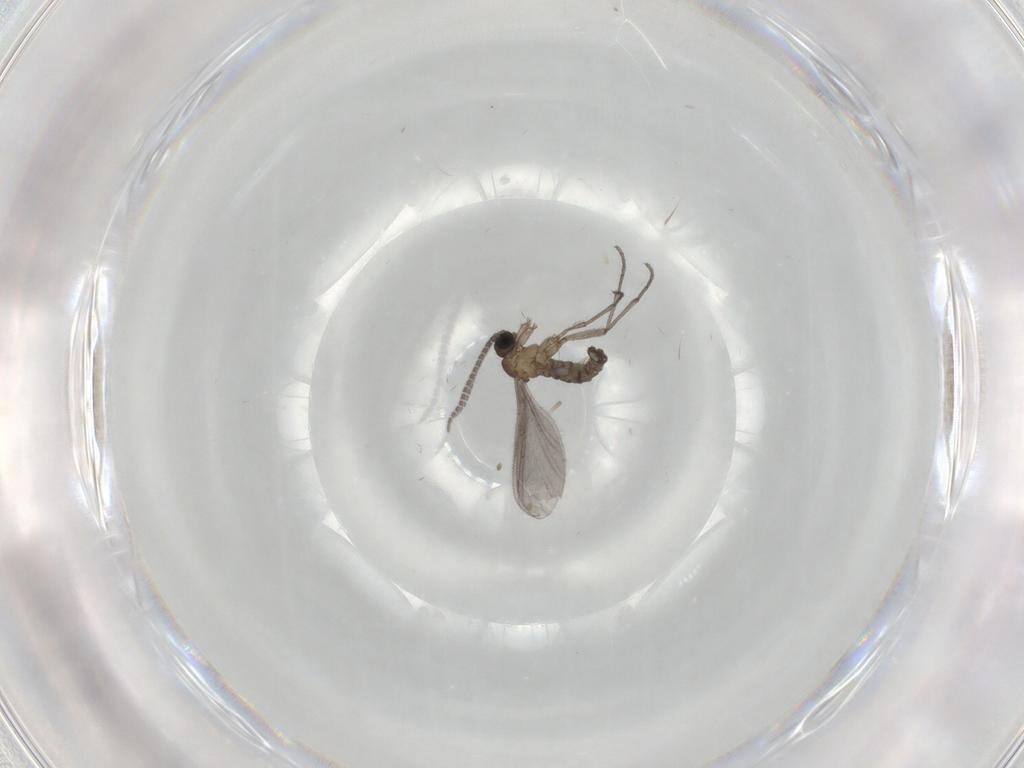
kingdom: Animalia
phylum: Arthropoda
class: Insecta
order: Diptera
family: Sciaridae
